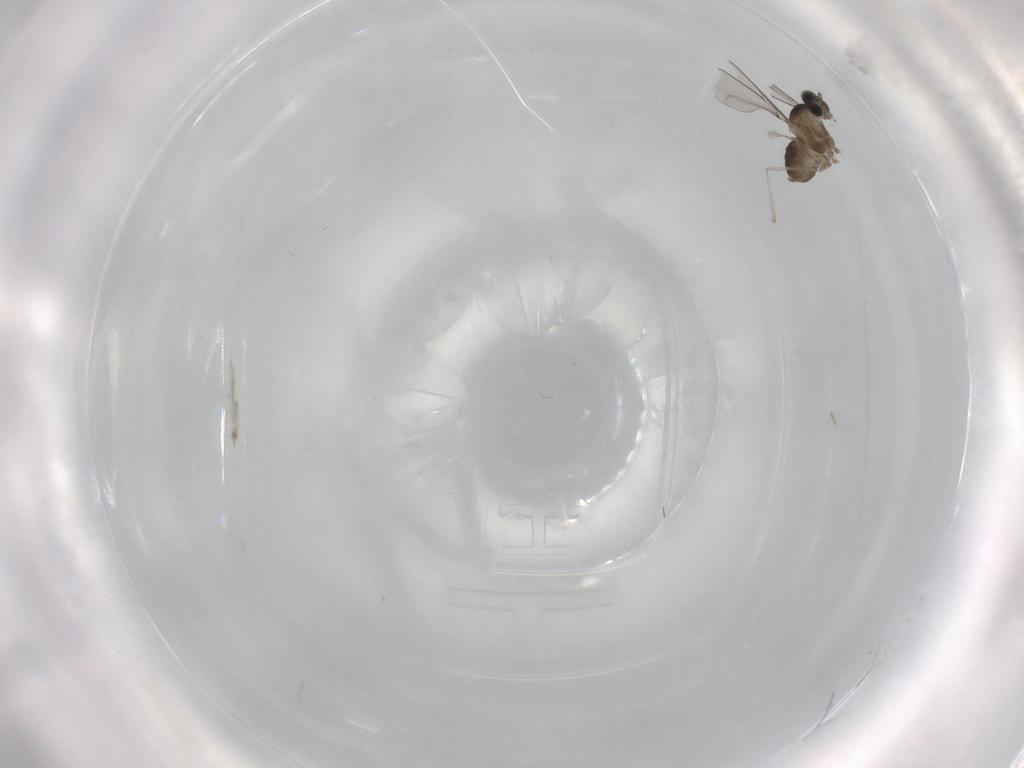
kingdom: Animalia
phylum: Arthropoda
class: Insecta
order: Diptera
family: Cecidomyiidae
